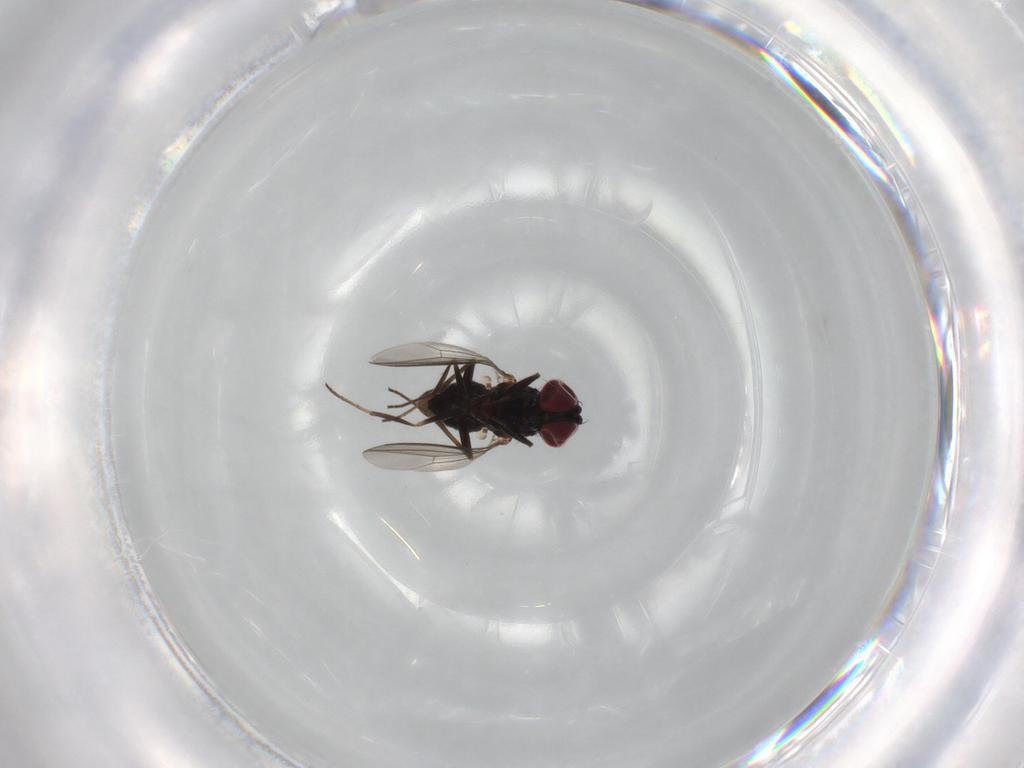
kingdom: Animalia
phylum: Arthropoda
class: Insecta
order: Diptera
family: Dolichopodidae
